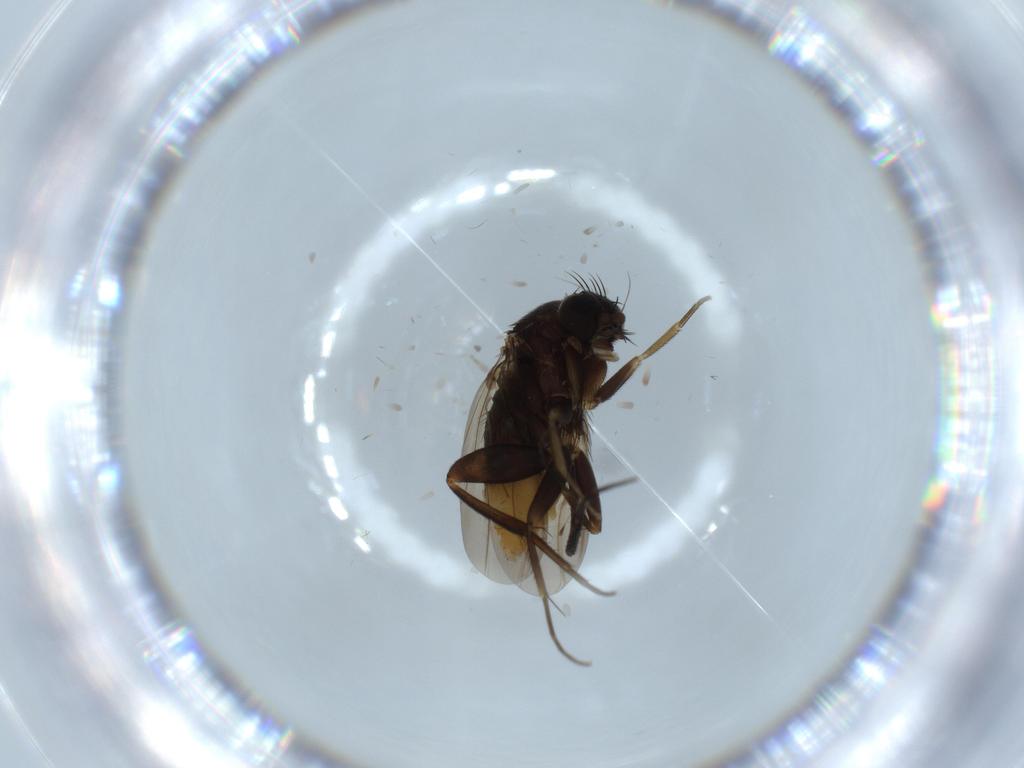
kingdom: Animalia
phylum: Arthropoda
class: Insecta
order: Diptera
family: Phoridae
